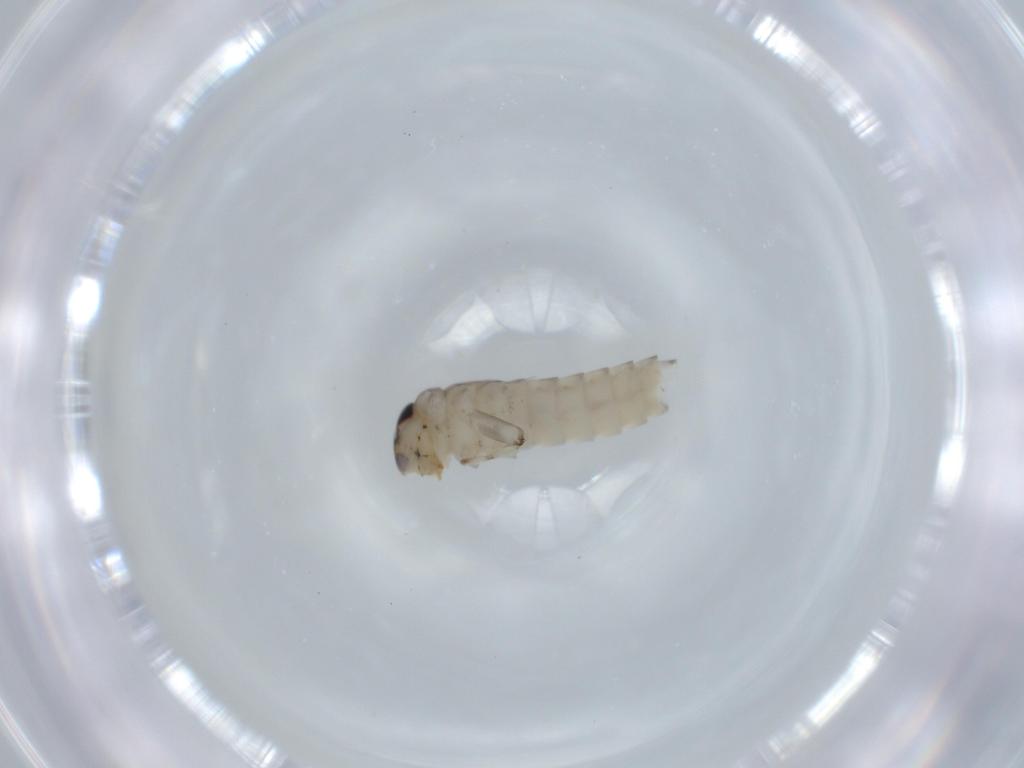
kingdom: Animalia
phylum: Arthropoda
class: Insecta
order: Ephemeroptera
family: Baetidae
